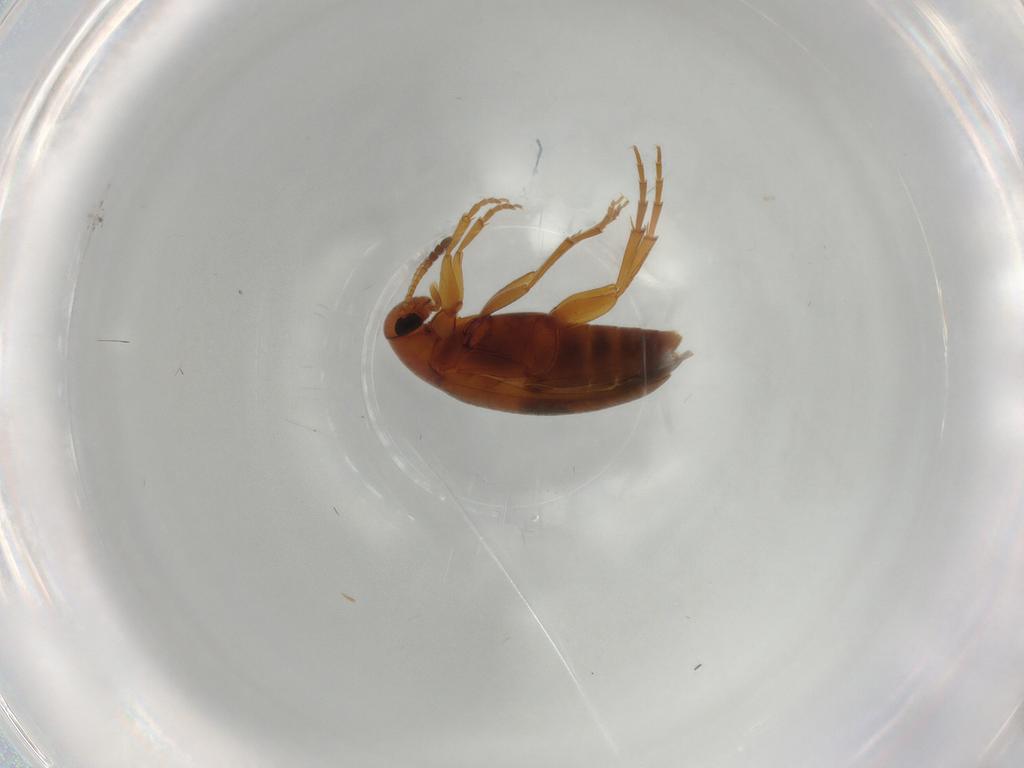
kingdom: Animalia
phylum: Arthropoda
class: Insecta
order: Coleoptera
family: Scraptiidae
